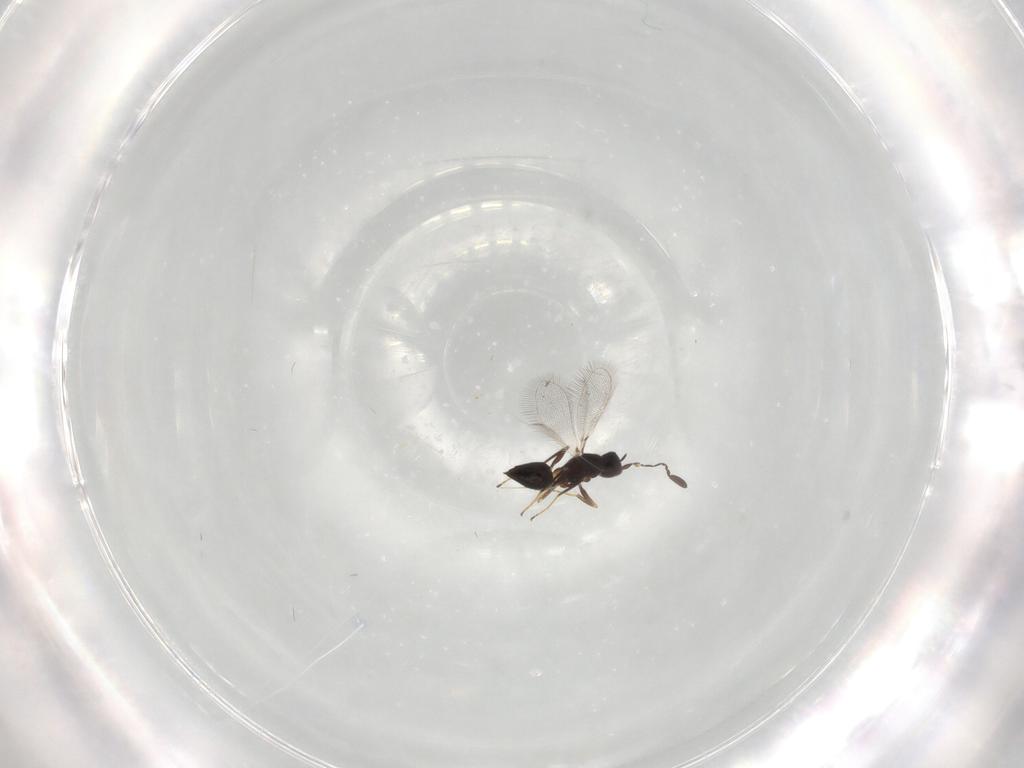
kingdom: Animalia
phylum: Arthropoda
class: Insecta
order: Hymenoptera
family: Mymaridae
